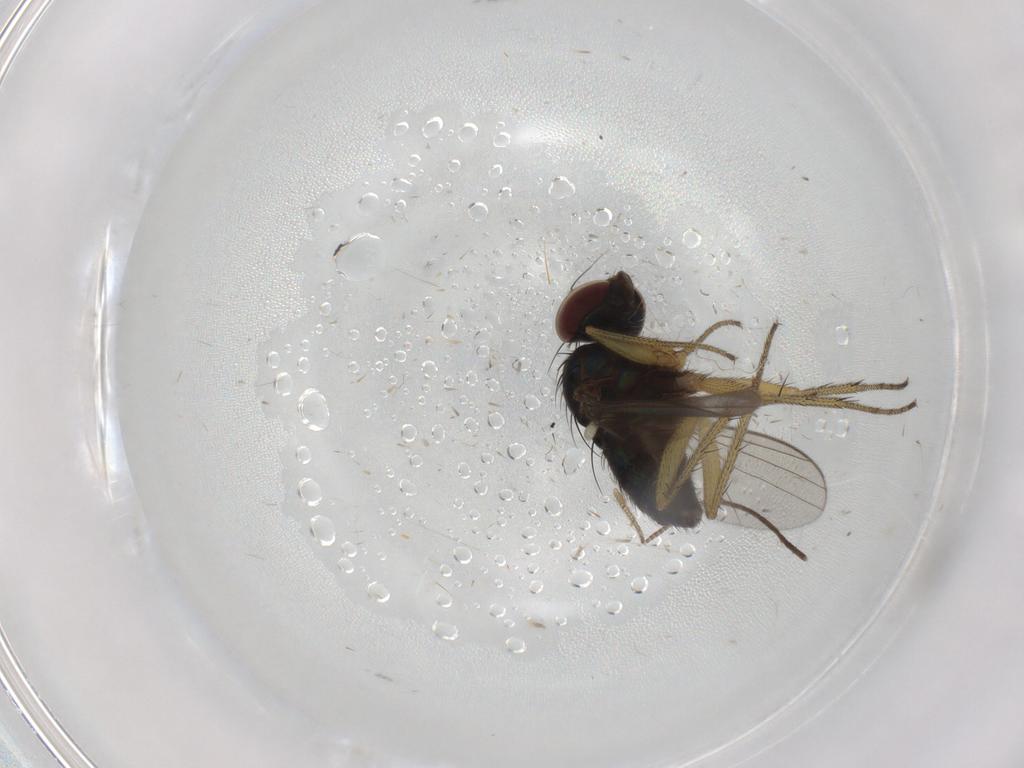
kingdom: Animalia
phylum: Arthropoda
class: Insecta
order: Diptera
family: Ceratopogonidae
